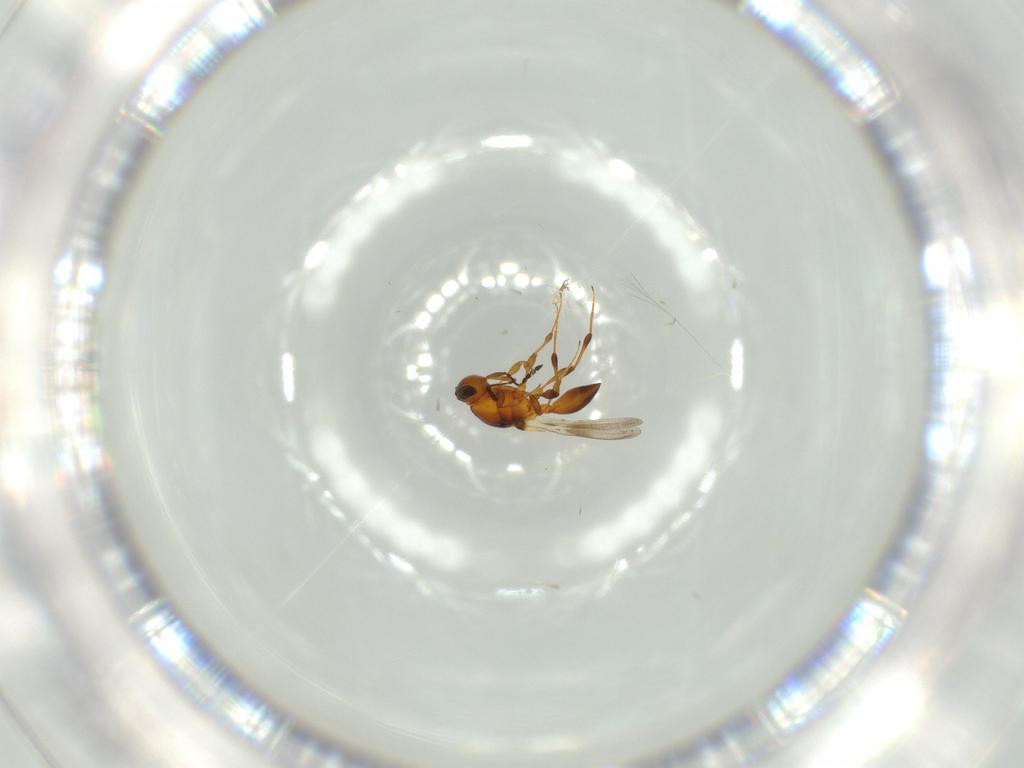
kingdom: Animalia
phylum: Arthropoda
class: Insecta
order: Hymenoptera
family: Platygastridae
